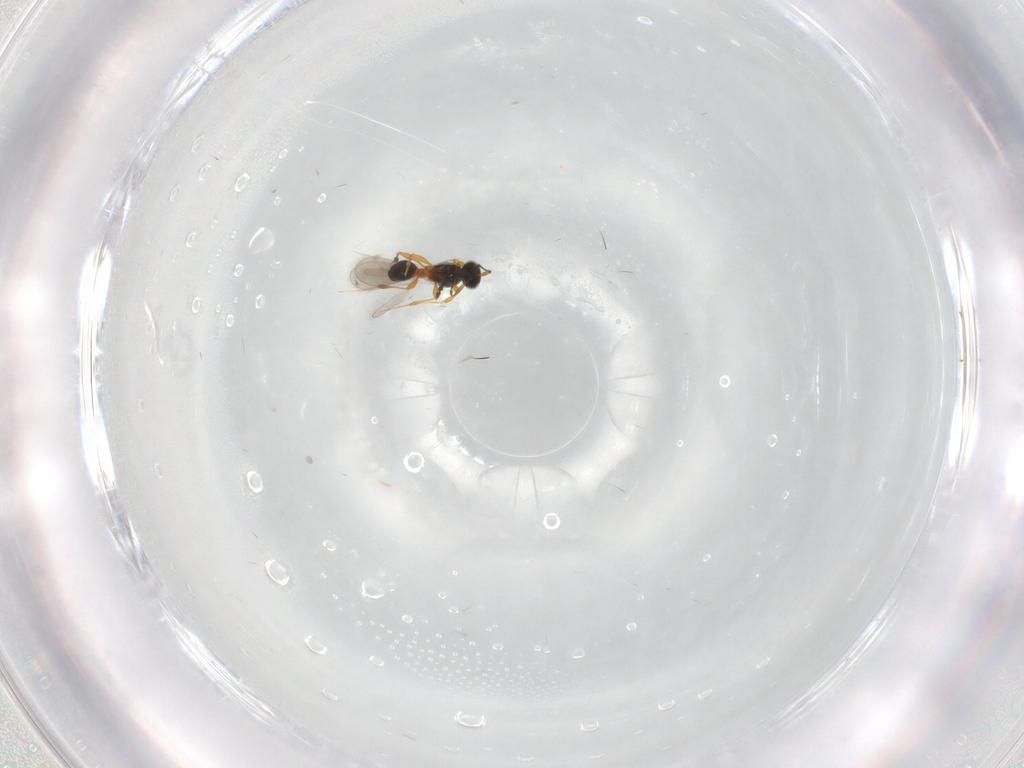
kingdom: Animalia
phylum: Arthropoda
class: Insecta
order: Hymenoptera
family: Platygastridae
